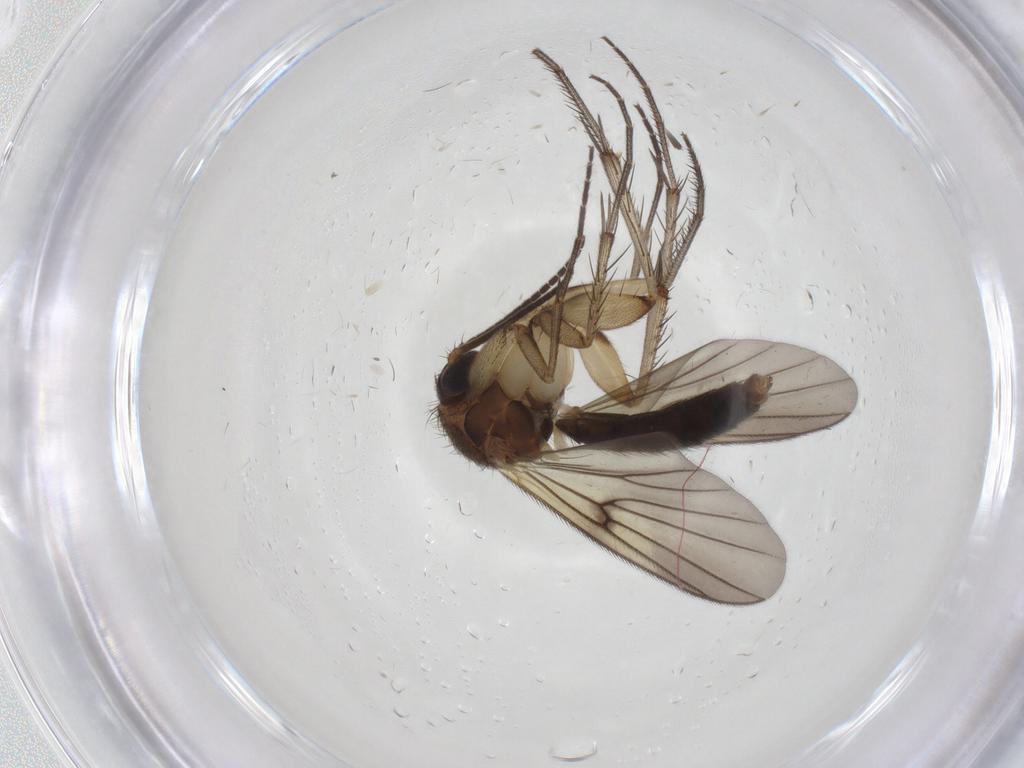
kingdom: Animalia
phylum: Arthropoda
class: Insecta
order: Diptera
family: Mycetophilidae
